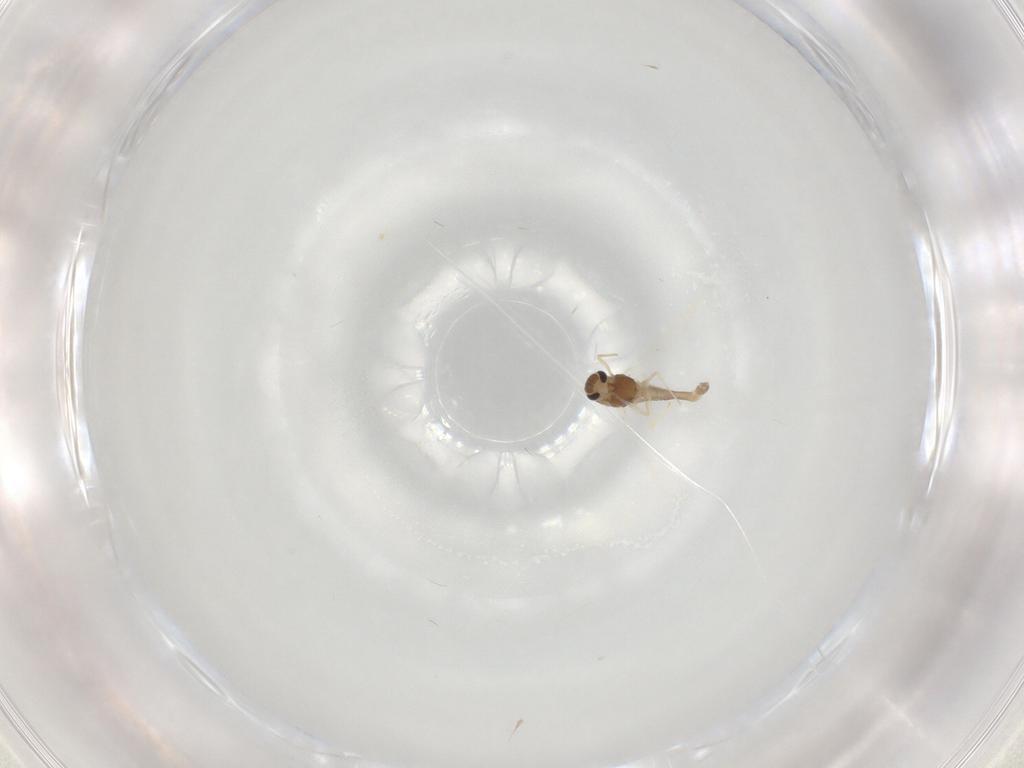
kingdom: Animalia
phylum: Arthropoda
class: Insecta
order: Diptera
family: Chironomidae
